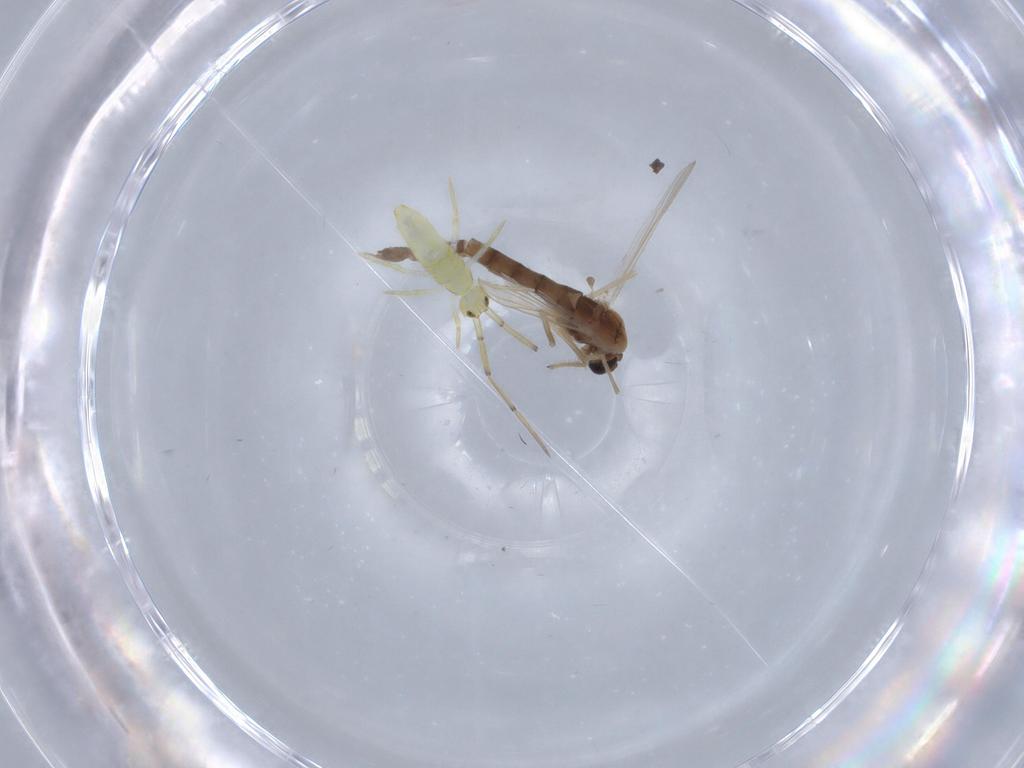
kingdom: Animalia
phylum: Arthropoda
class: Insecta
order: Diptera
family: Chironomidae
